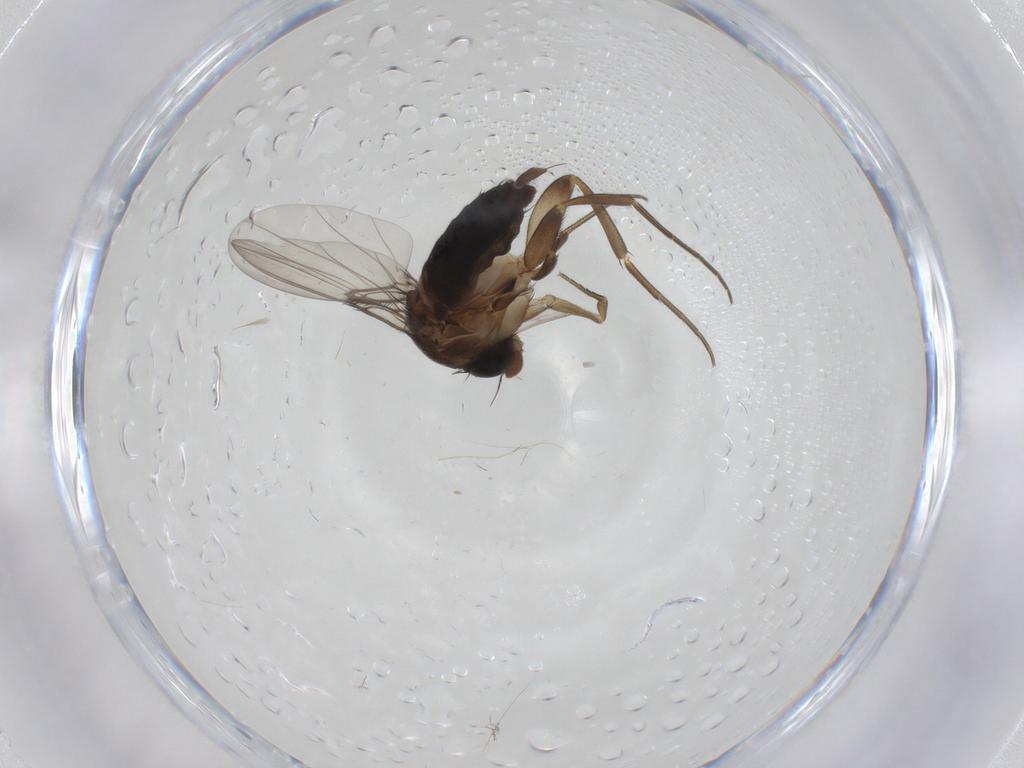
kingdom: Animalia
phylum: Arthropoda
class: Insecta
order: Diptera
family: Phoridae
